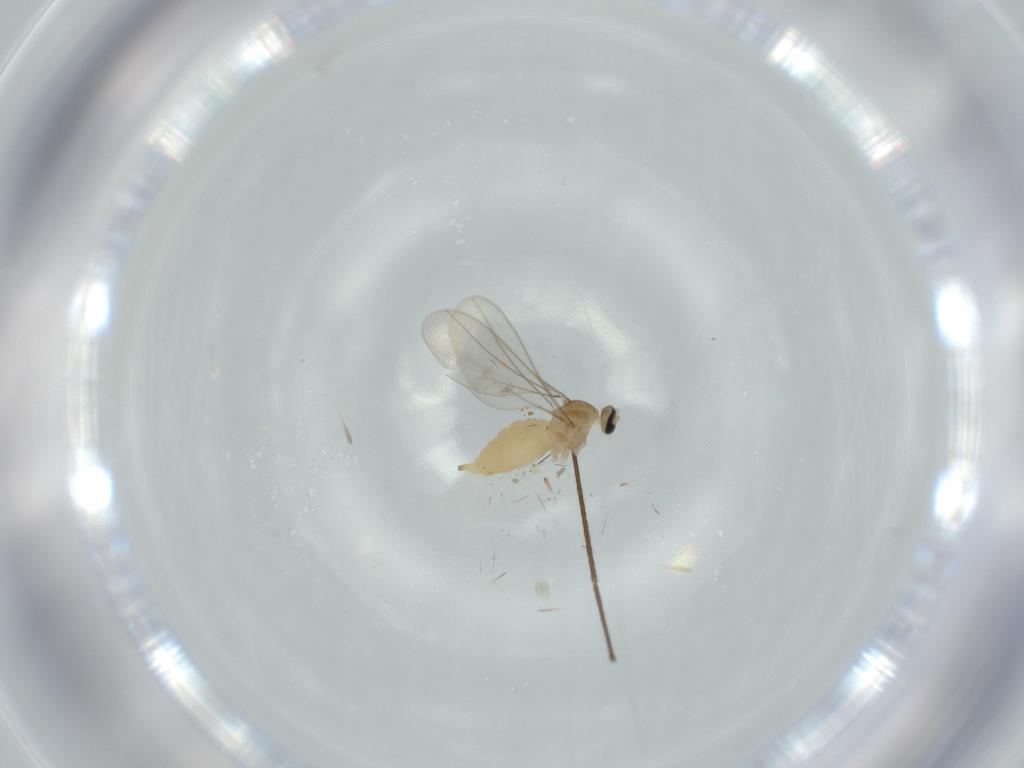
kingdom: Animalia
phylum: Arthropoda
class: Insecta
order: Diptera
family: Cecidomyiidae
